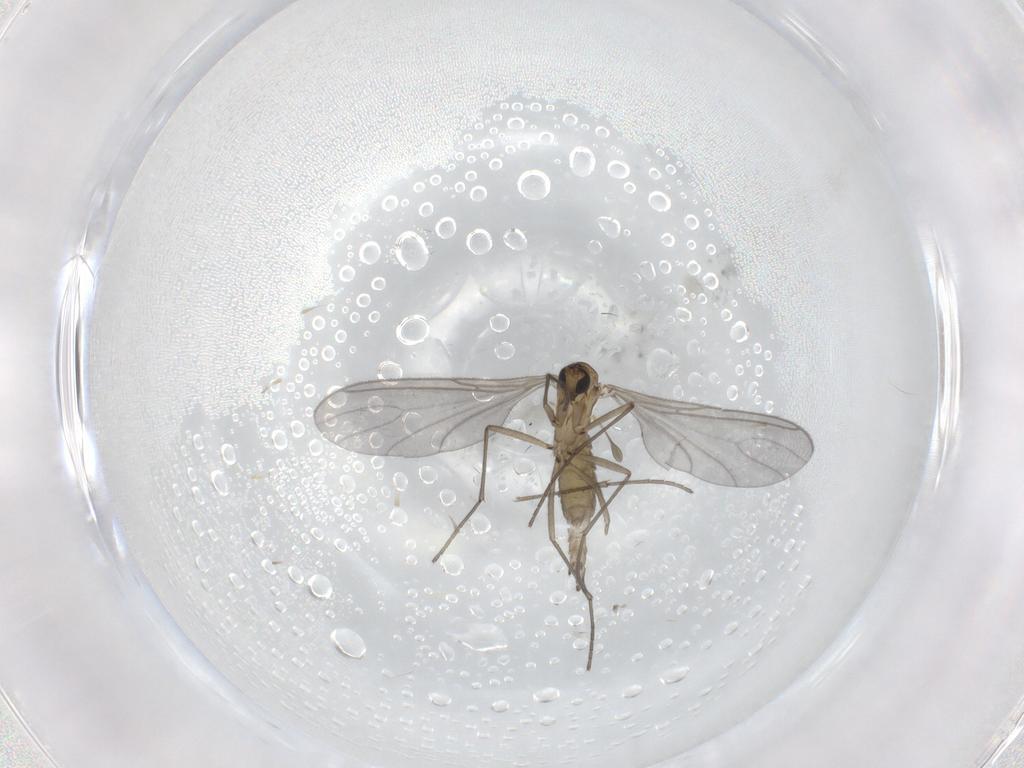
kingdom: Animalia
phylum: Arthropoda
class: Insecta
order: Diptera
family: Sciaridae
